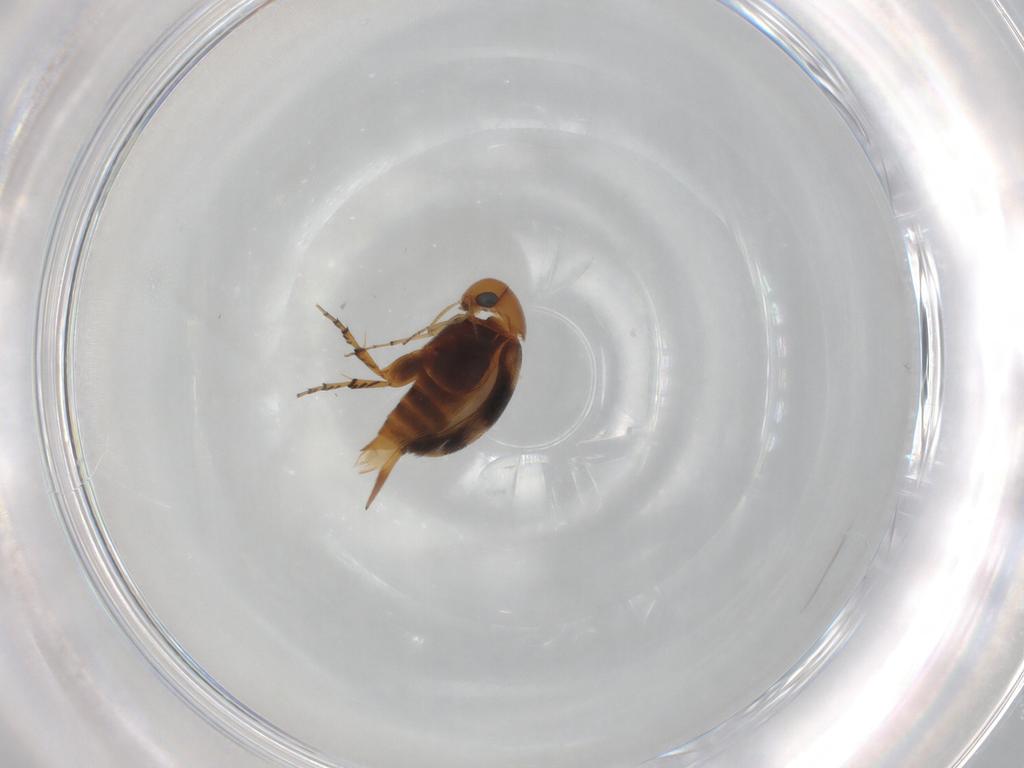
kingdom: Animalia
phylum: Arthropoda
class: Insecta
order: Coleoptera
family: Mordellidae
